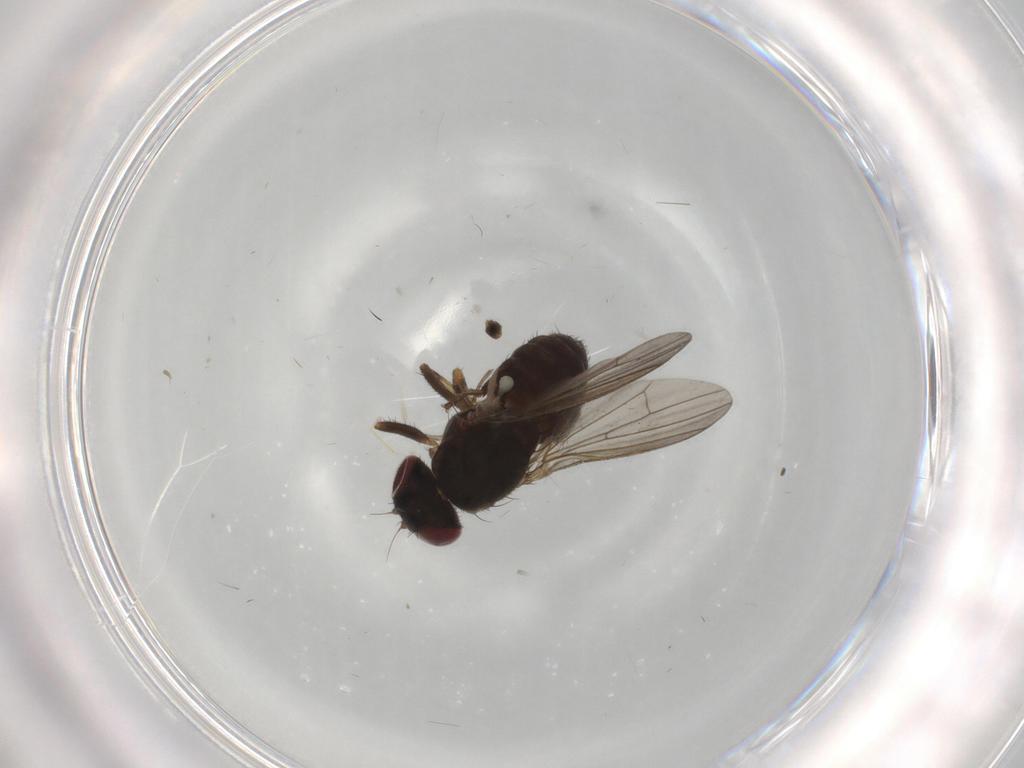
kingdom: Animalia
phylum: Arthropoda
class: Insecta
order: Diptera
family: Heleomyzidae
